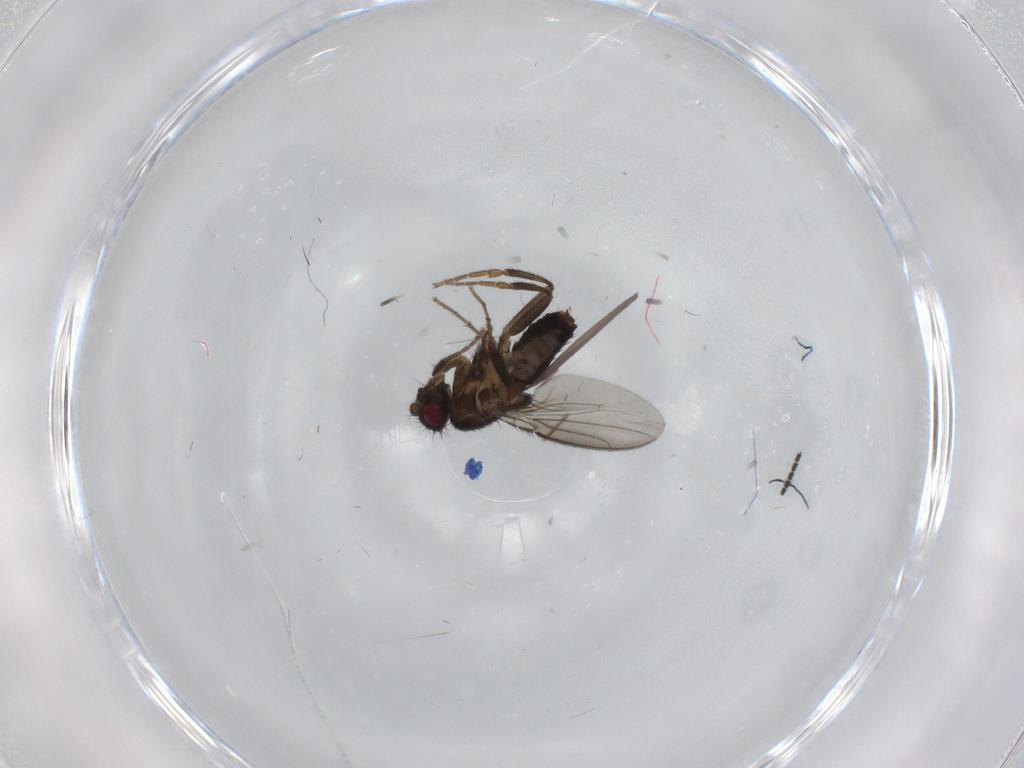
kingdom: Animalia
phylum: Arthropoda
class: Insecta
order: Diptera
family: Sphaeroceridae
